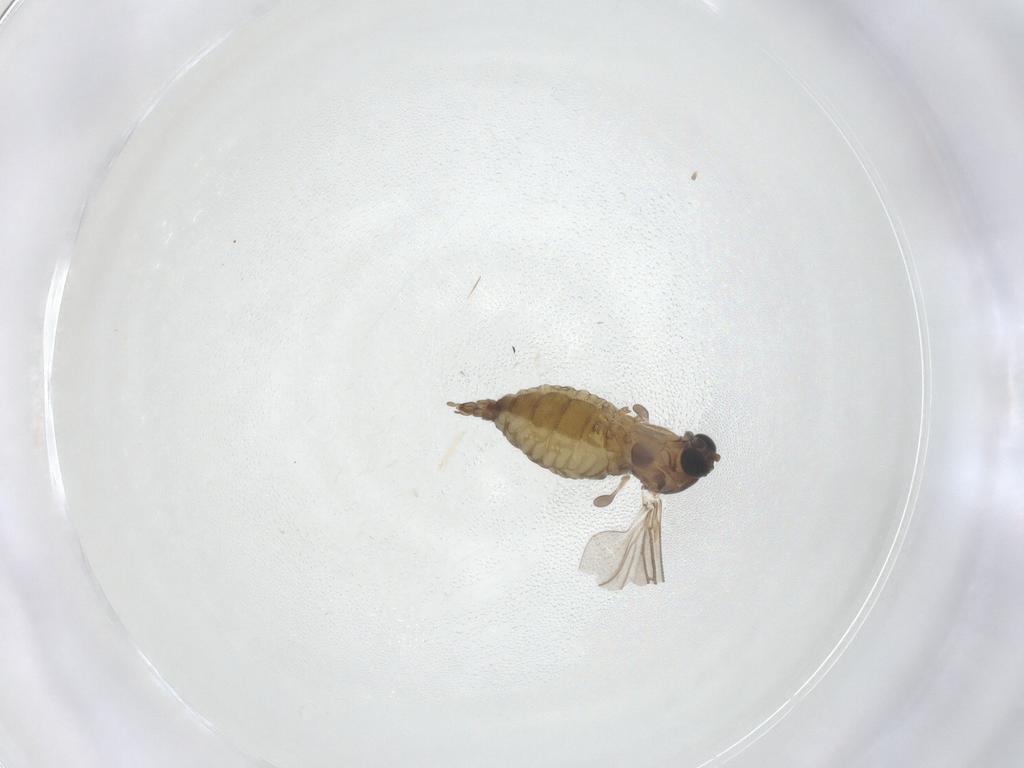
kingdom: Animalia
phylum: Arthropoda
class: Insecta
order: Diptera
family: Sciaridae
